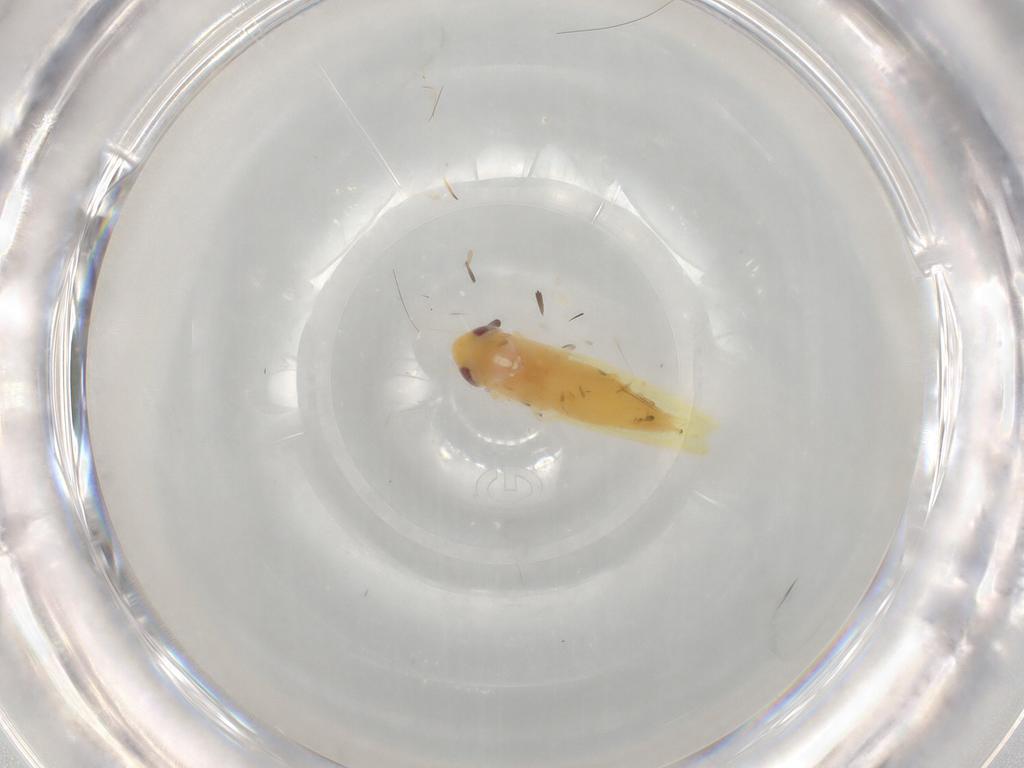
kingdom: Animalia
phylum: Arthropoda
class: Insecta
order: Hemiptera
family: Cicadellidae
